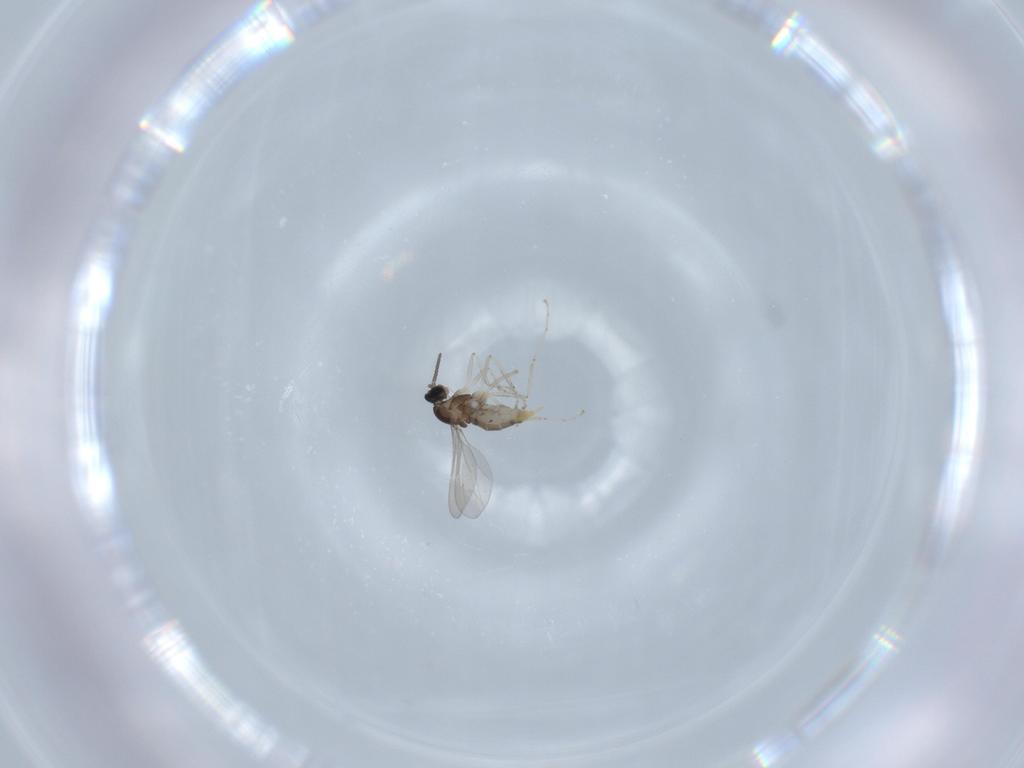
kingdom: Animalia
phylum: Arthropoda
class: Insecta
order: Diptera
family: Sciaridae
